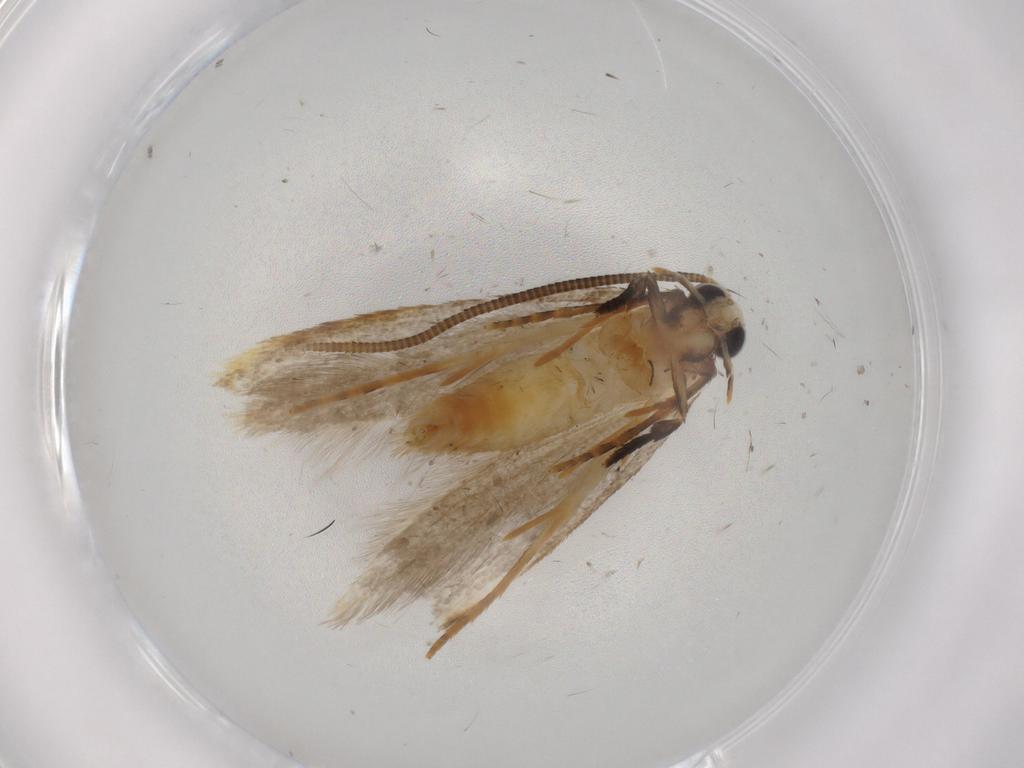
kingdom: Animalia
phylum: Arthropoda
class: Insecta
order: Lepidoptera
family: Tineidae
